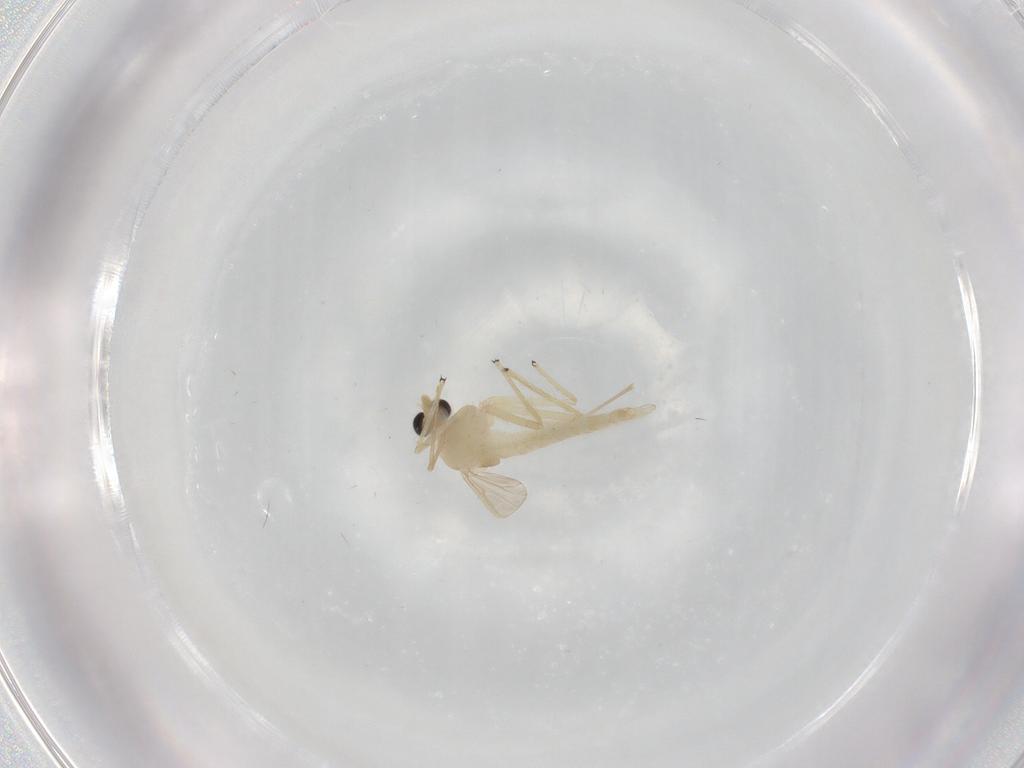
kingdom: Animalia
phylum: Arthropoda
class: Insecta
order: Diptera
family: Chironomidae
